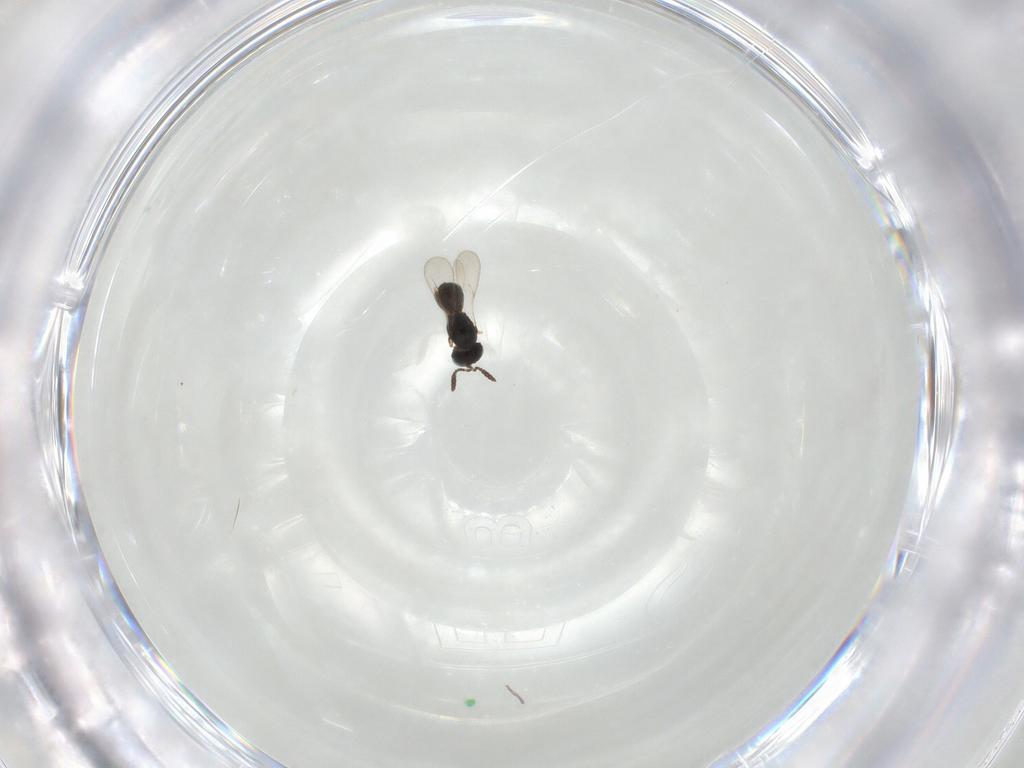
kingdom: Animalia
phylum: Arthropoda
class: Insecta
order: Hymenoptera
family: Scelionidae
